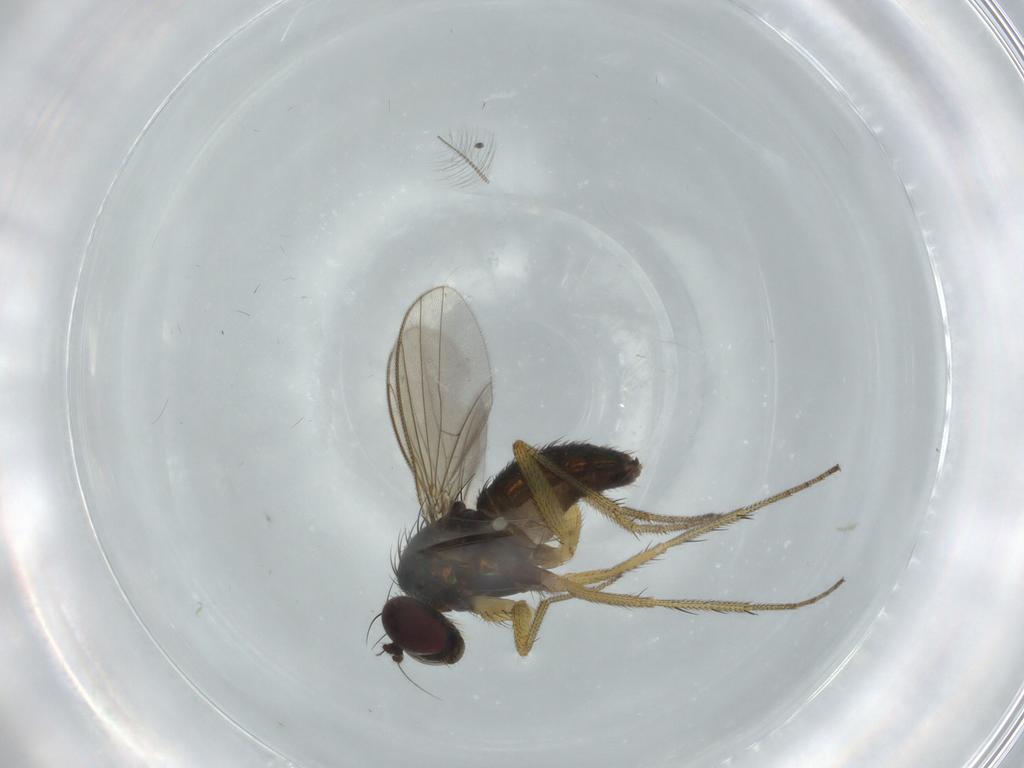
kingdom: Animalia
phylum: Arthropoda
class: Insecta
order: Diptera
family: Dolichopodidae
